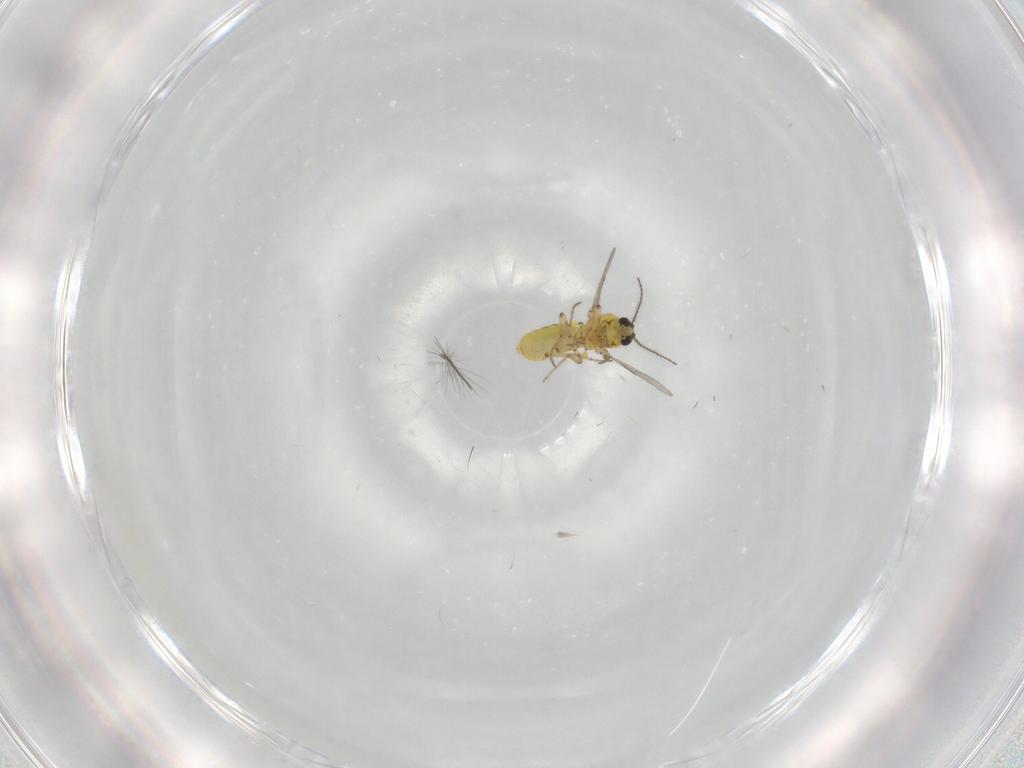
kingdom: Animalia
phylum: Arthropoda
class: Insecta
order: Diptera
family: Ceratopogonidae
